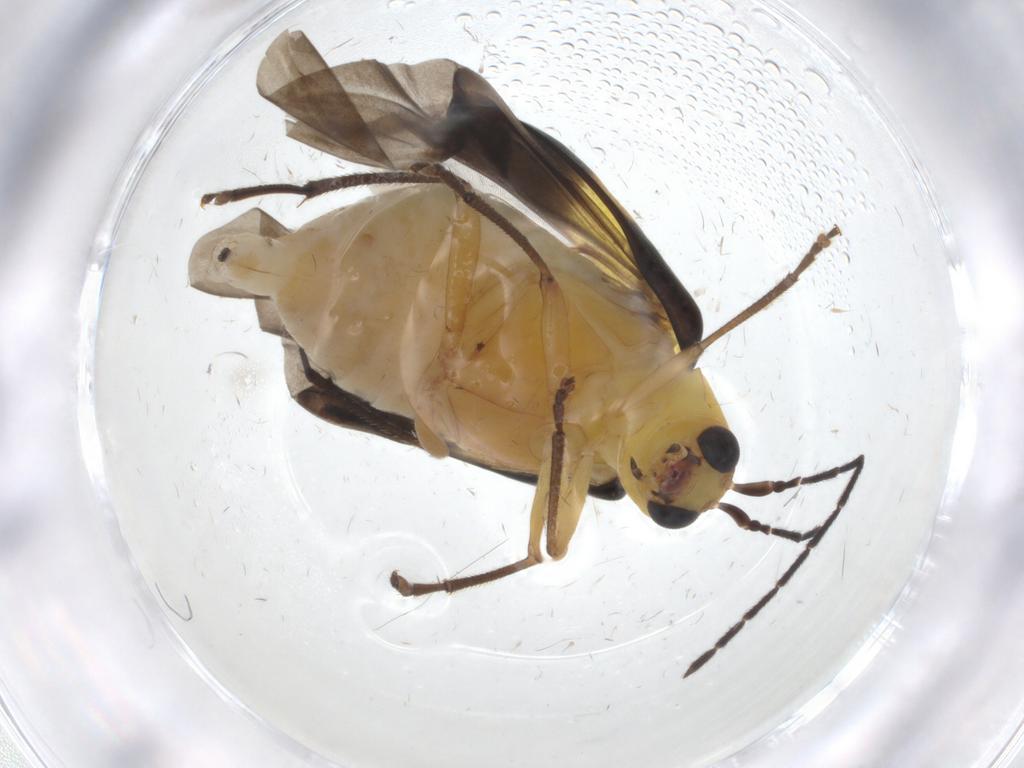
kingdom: Animalia
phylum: Arthropoda
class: Insecta
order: Coleoptera
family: Chrysomelidae
